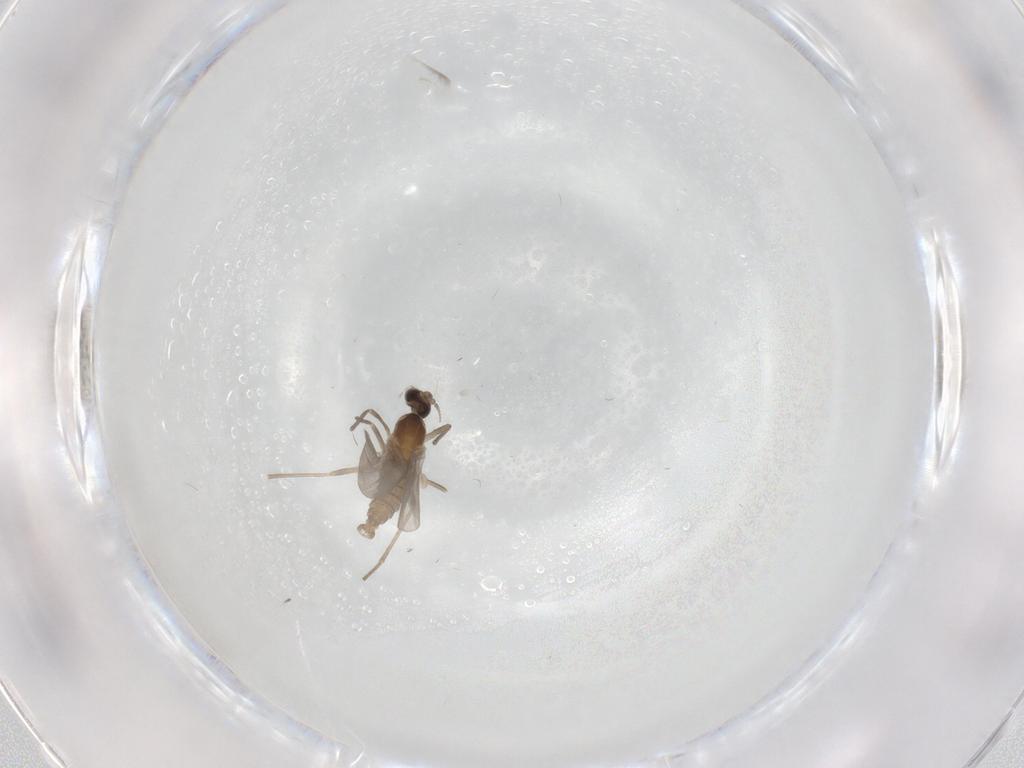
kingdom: Animalia
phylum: Arthropoda
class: Insecta
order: Diptera
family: Cecidomyiidae
